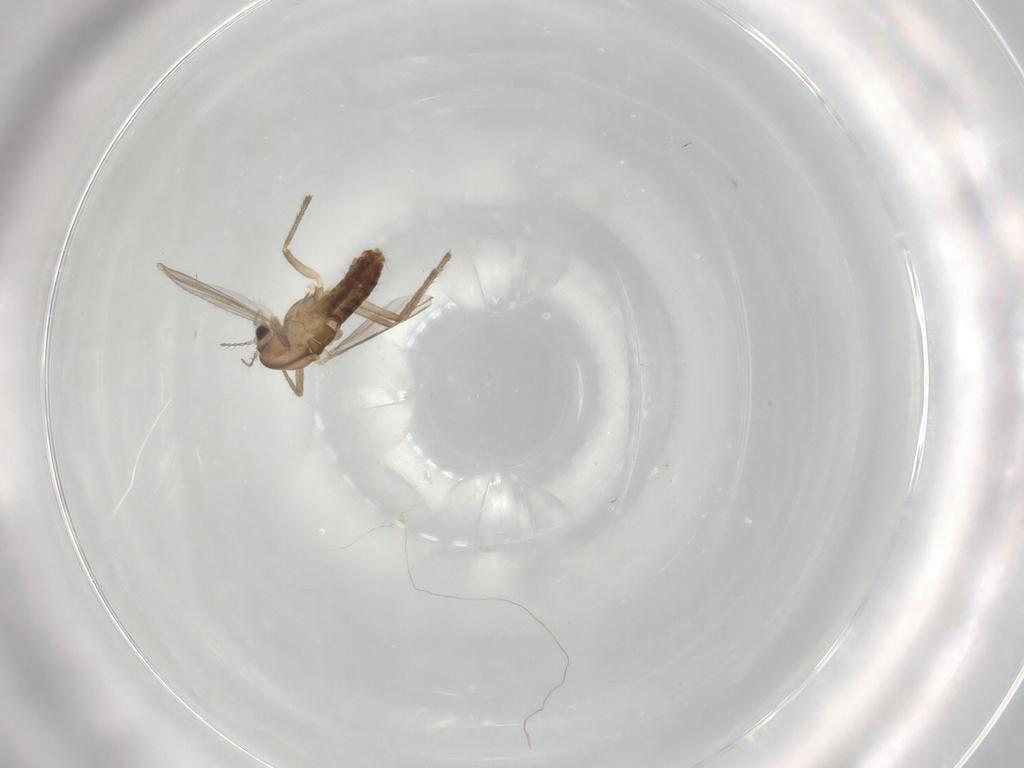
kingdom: Animalia
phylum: Arthropoda
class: Insecta
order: Diptera
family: Chironomidae
